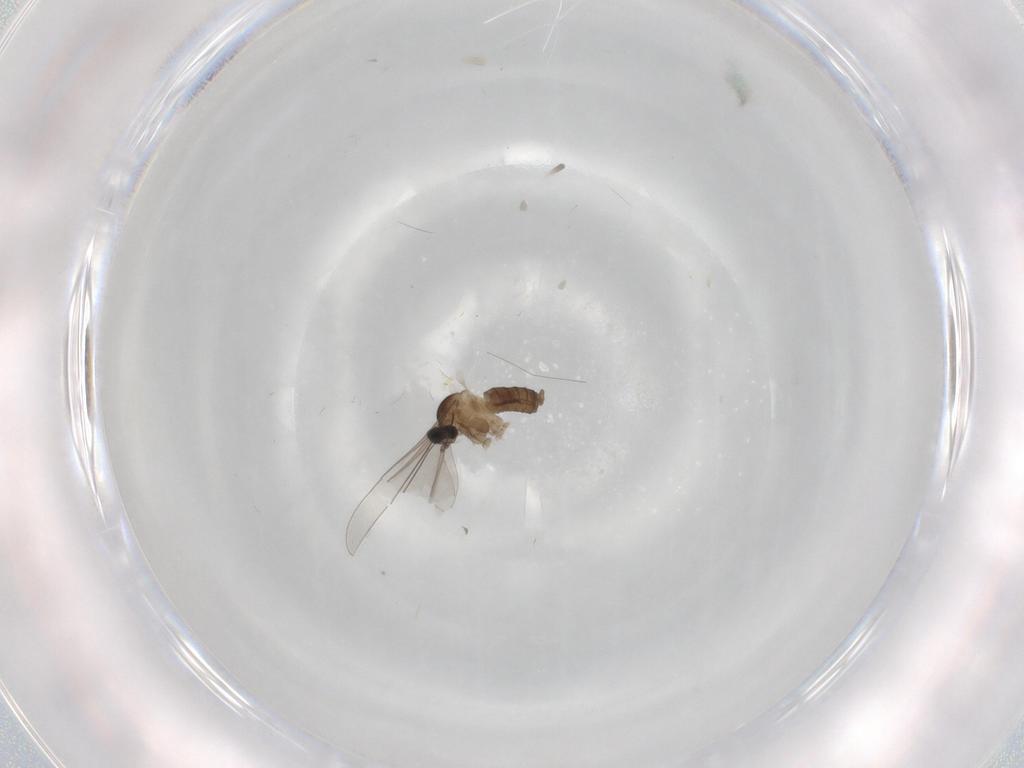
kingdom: Animalia
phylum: Arthropoda
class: Insecta
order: Diptera
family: Cecidomyiidae
